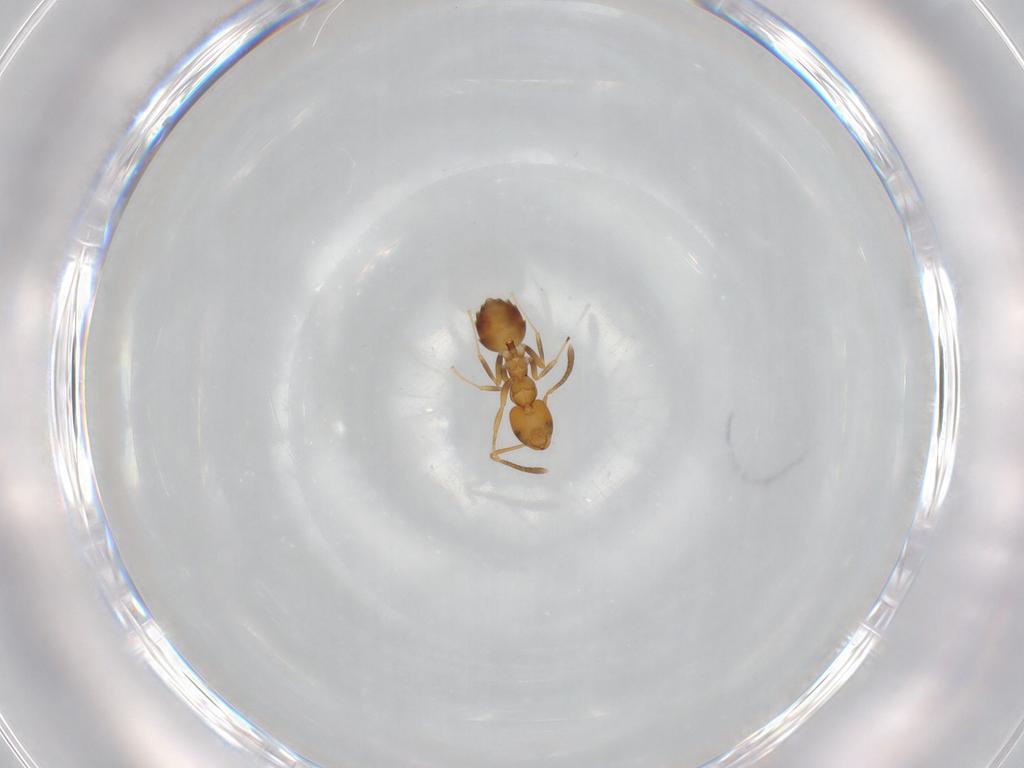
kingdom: Animalia
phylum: Arthropoda
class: Insecta
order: Hymenoptera
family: Formicidae
